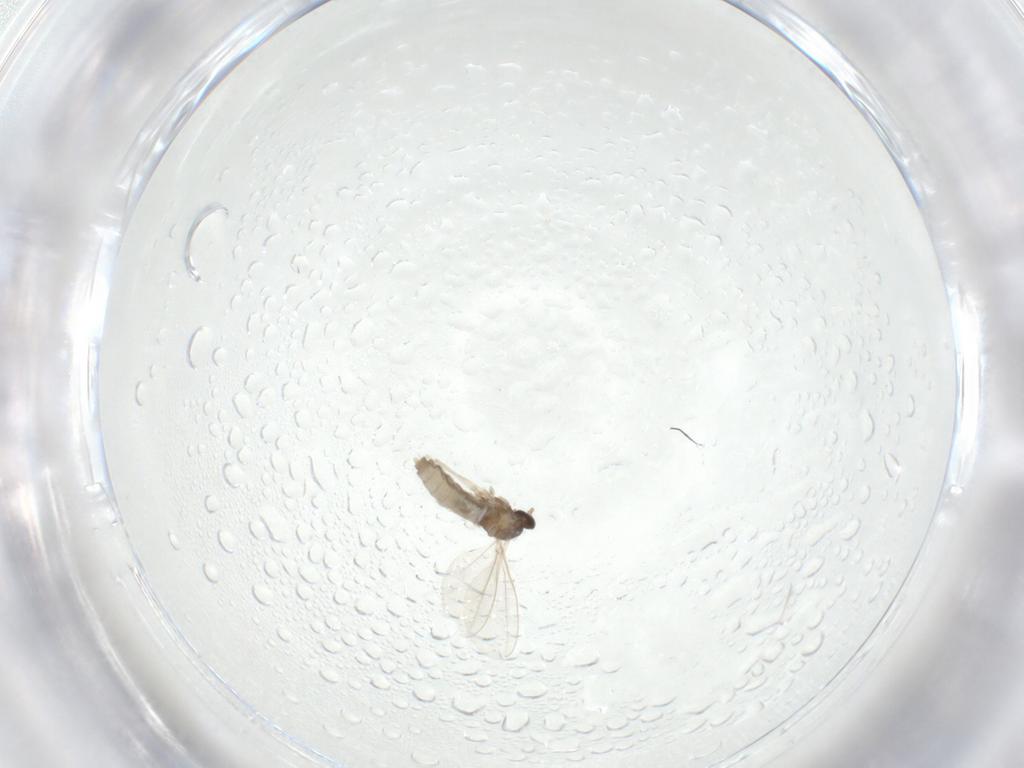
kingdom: Animalia
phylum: Arthropoda
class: Insecta
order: Diptera
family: Cecidomyiidae
